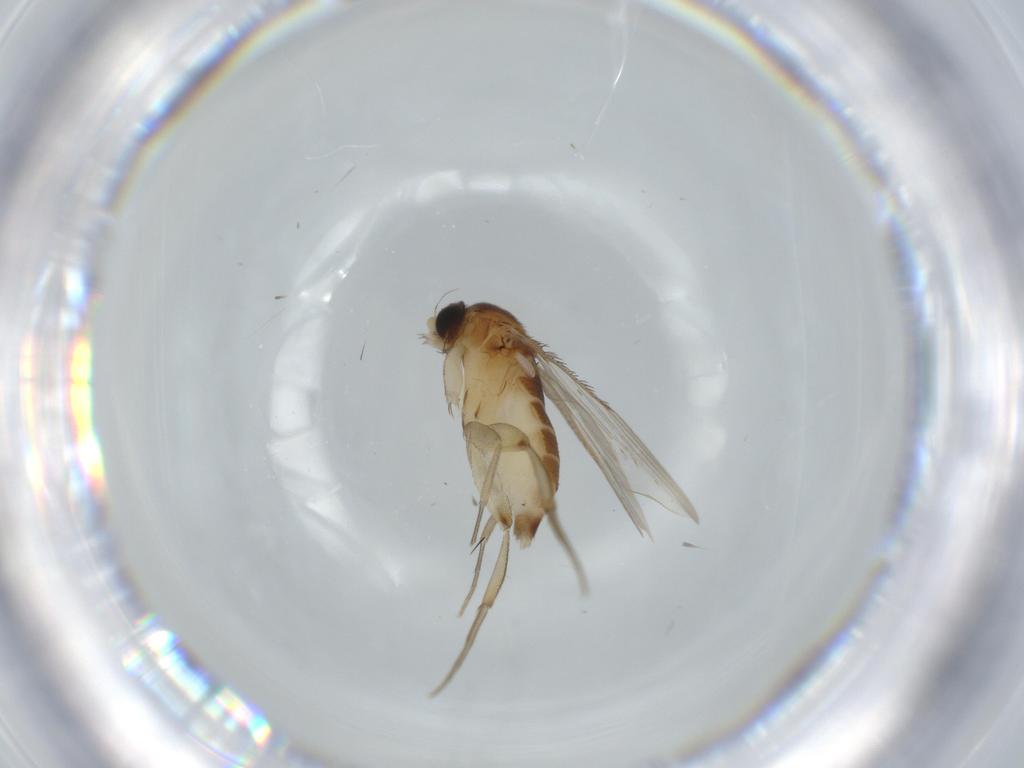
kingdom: Animalia
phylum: Arthropoda
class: Insecta
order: Diptera
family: Phoridae
